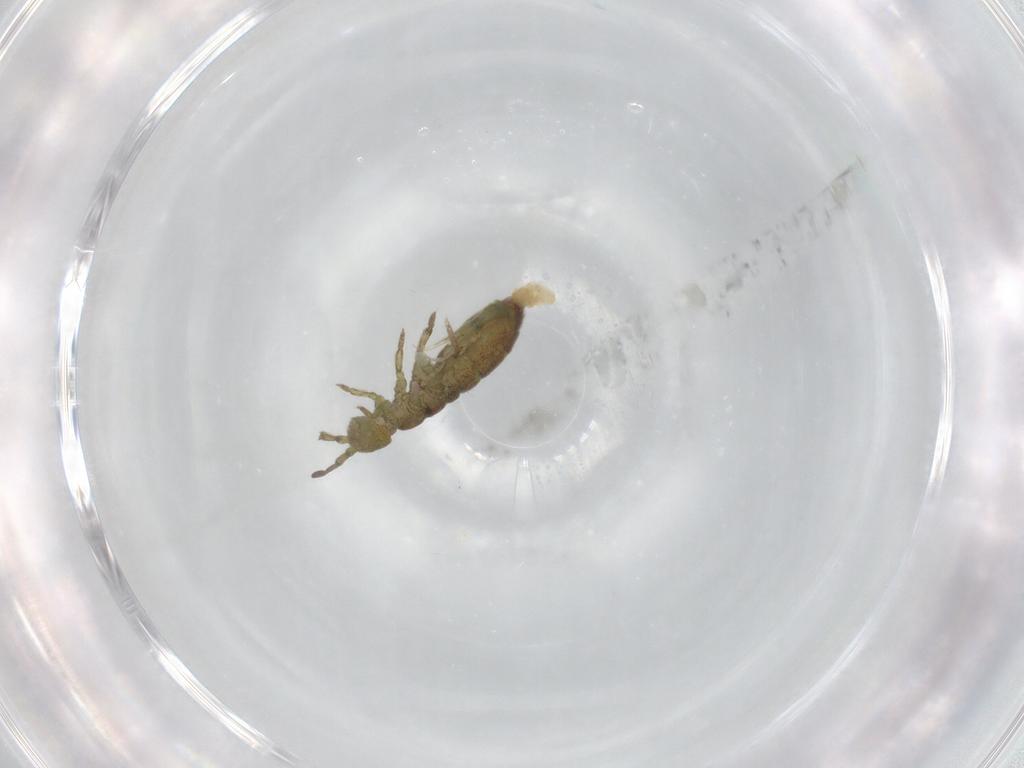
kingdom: Animalia
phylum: Arthropoda
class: Collembola
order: Entomobryomorpha
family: Isotomidae
